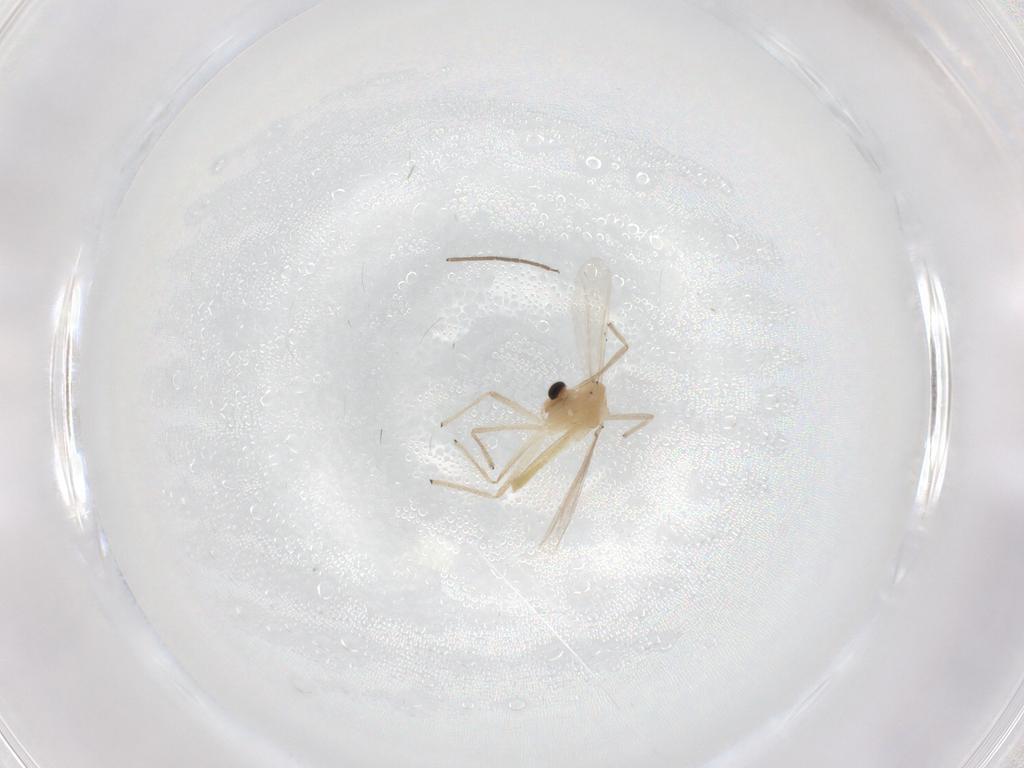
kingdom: Animalia
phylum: Arthropoda
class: Insecta
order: Diptera
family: Chironomidae
